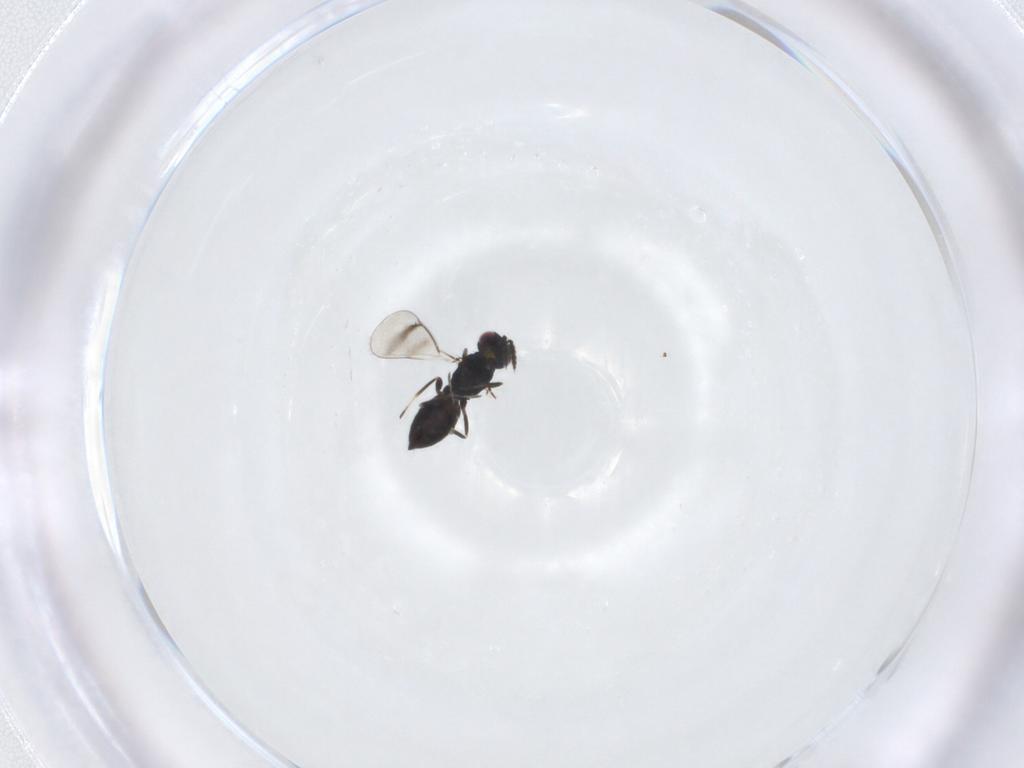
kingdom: Animalia
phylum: Arthropoda
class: Insecta
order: Hymenoptera
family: Eulophidae
